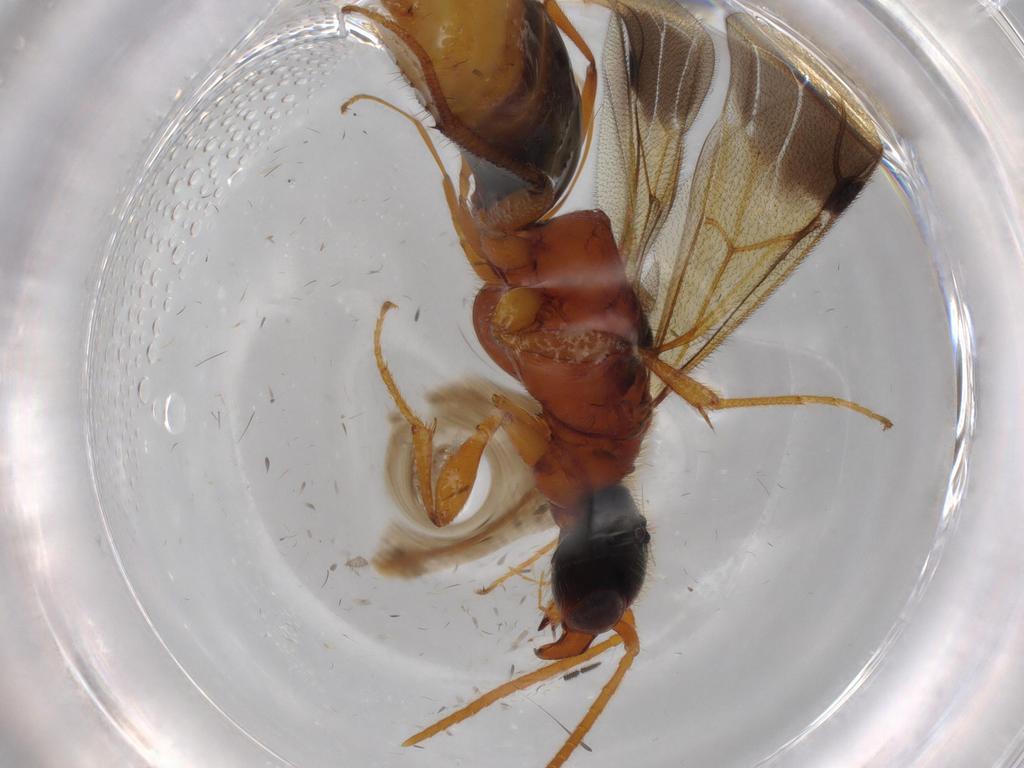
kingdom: Animalia
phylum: Arthropoda
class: Insecta
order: Hymenoptera
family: Bethylidae
